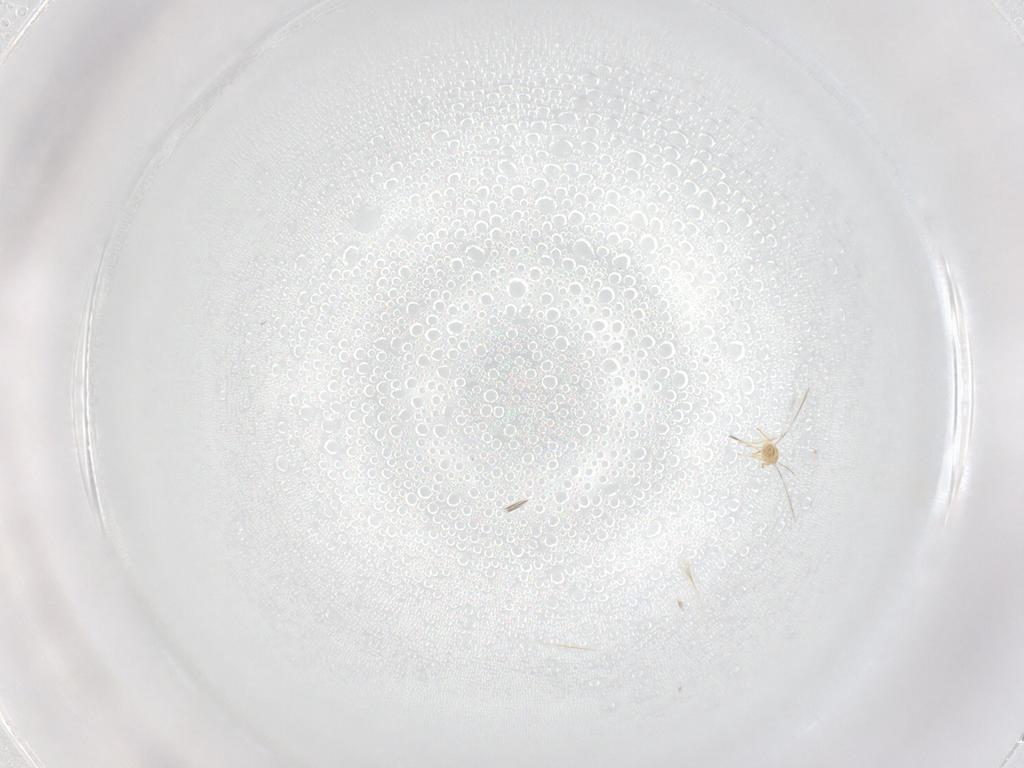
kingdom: Animalia
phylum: Arthropoda
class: Insecta
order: Hymenoptera
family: Mymaridae
